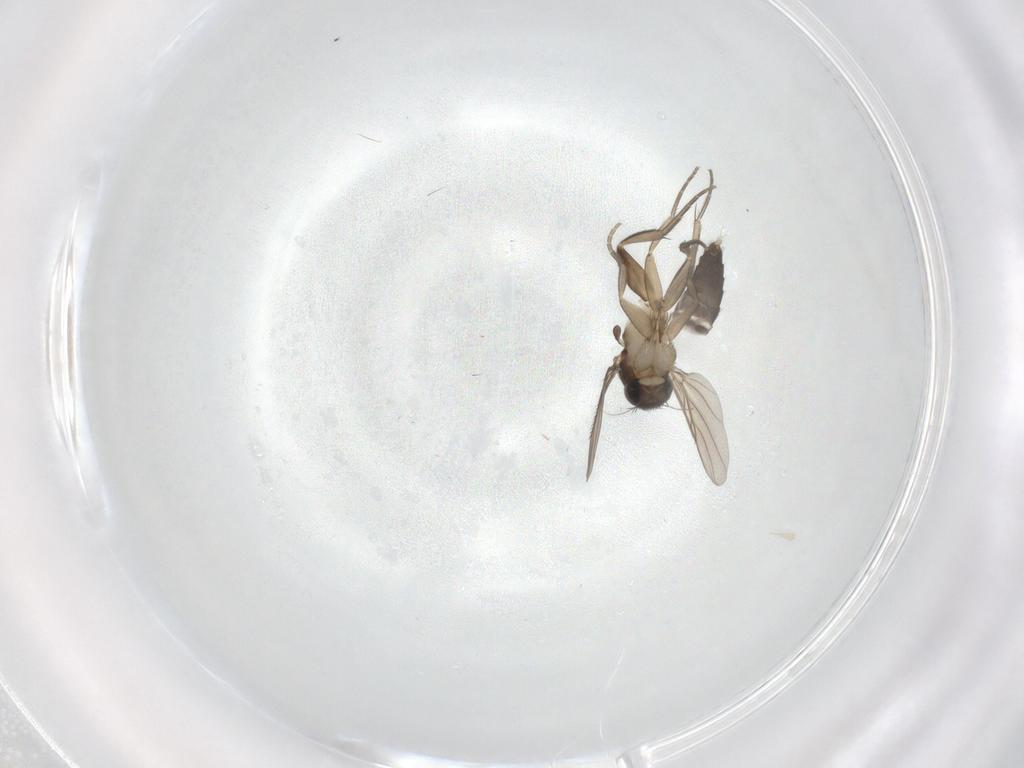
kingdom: Animalia
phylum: Arthropoda
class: Insecta
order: Diptera
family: Phoridae
